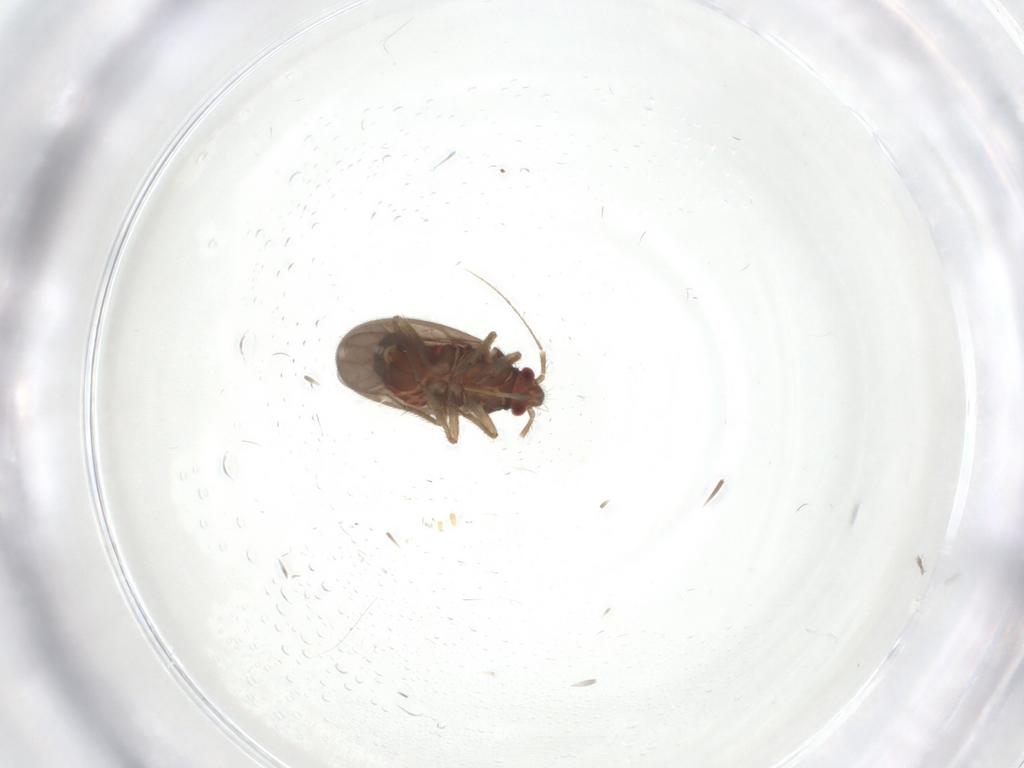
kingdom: Animalia
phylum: Arthropoda
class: Insecta
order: Hemiptera
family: Ceratocombidae
